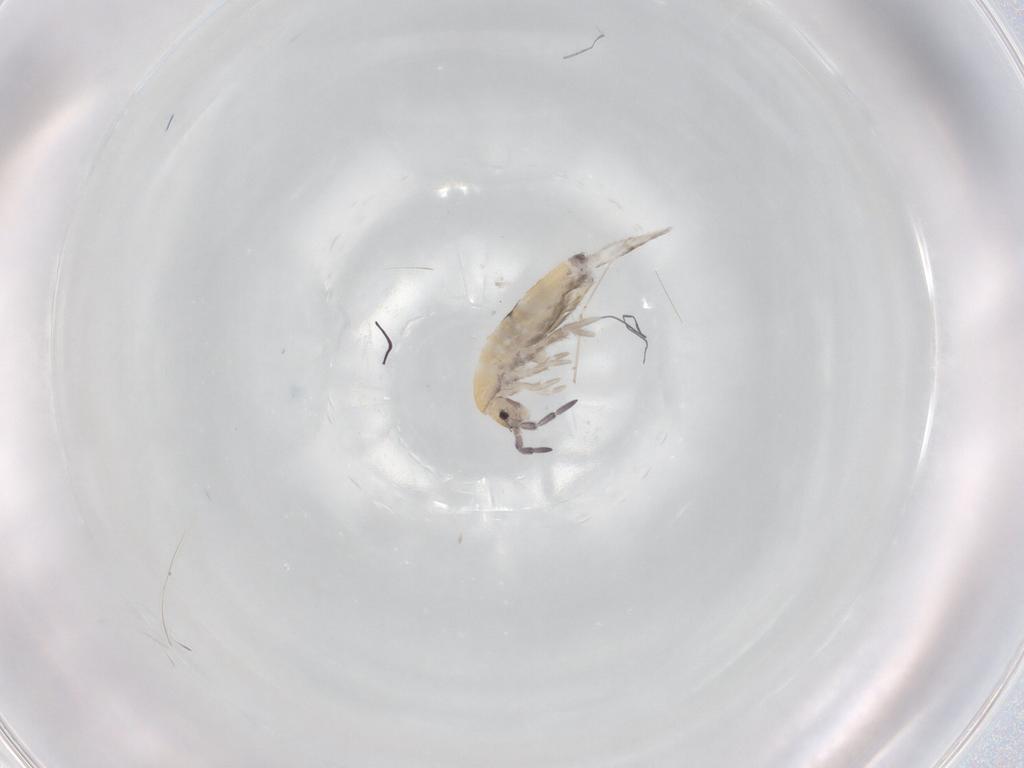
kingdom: Animalia
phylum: Arthropoda
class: Collembola
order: Entomobryomorpha
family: Entomobryidae
